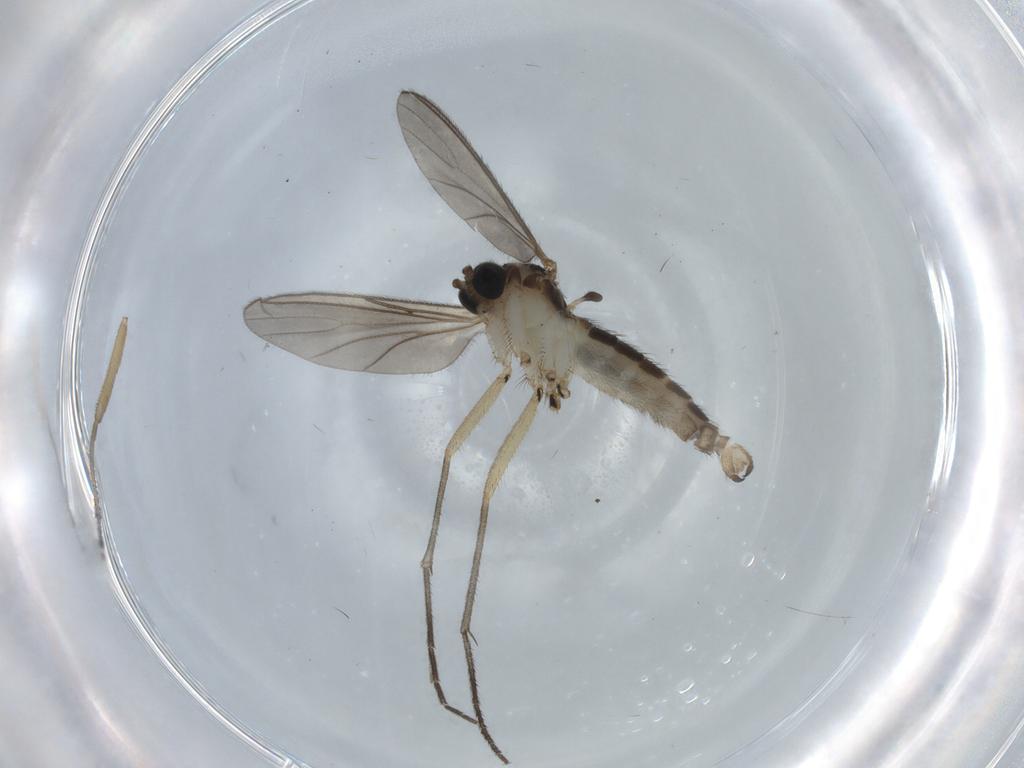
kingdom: Animalia
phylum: Arthropoda
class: Insecta
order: Diptera
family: Sciaridae
